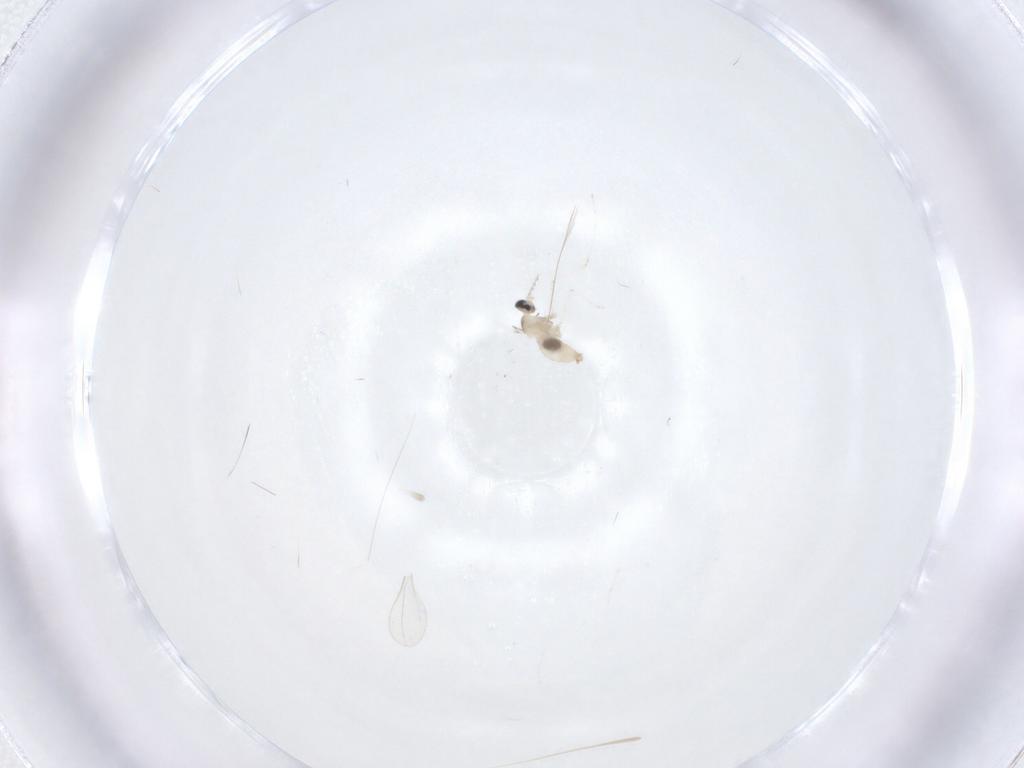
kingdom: Animalia
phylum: Arthropoda
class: Insecta
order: Diptera
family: Cecidomyiidae
